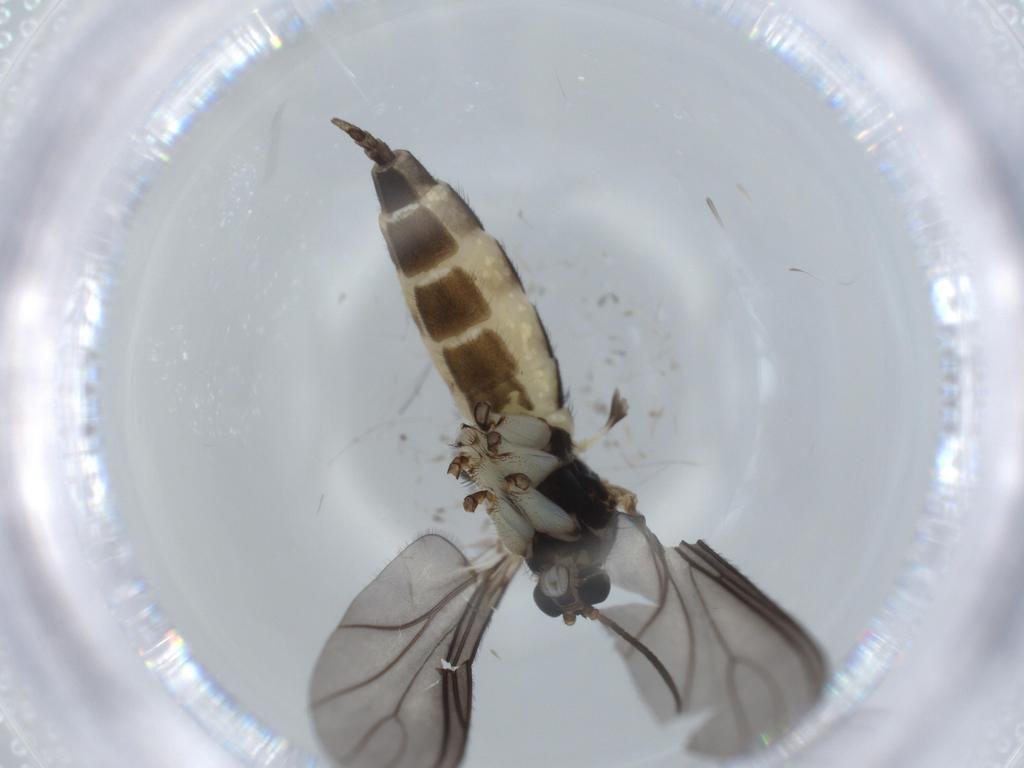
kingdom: Animalia
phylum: Arthropoda
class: Insecta
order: Diptera
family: Sciaridae
